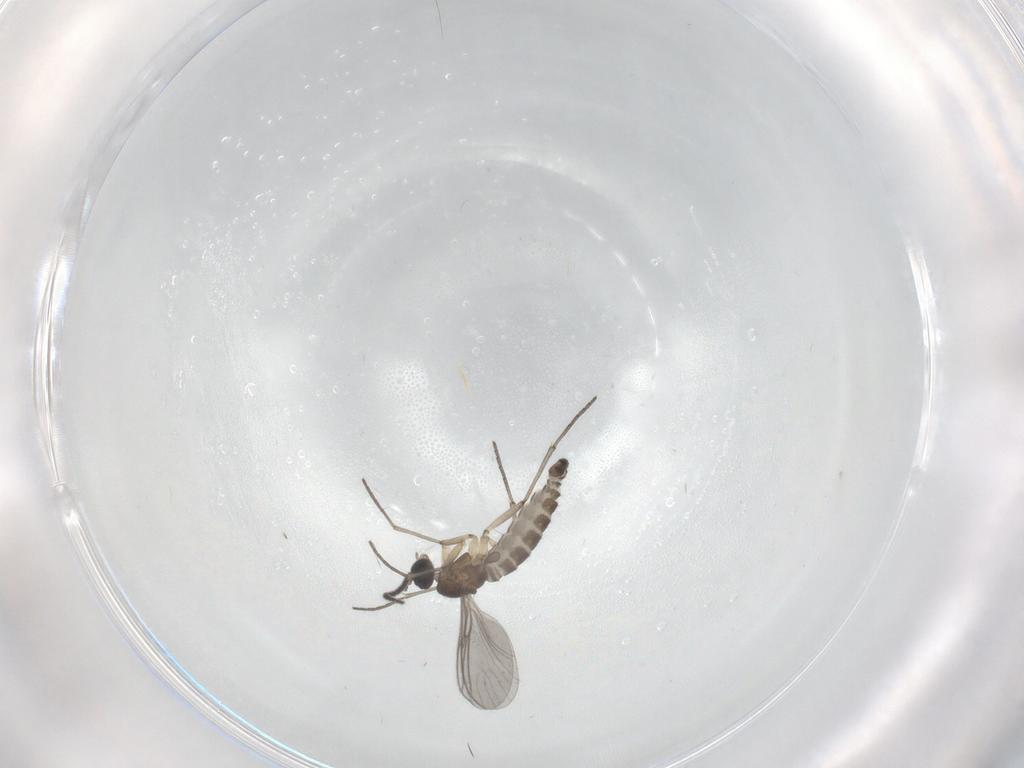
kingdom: Animalia
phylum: Arthropoda
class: Insecta
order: Diptera
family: Sciaridae
